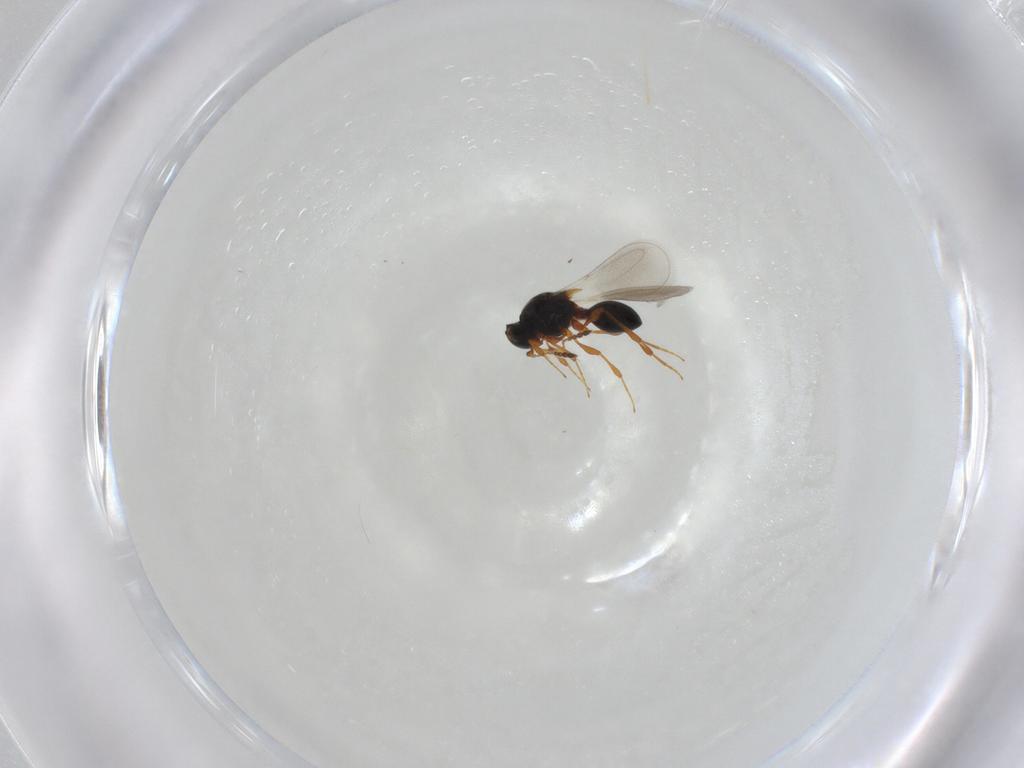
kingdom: Animalia
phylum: Arthropoda
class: Insecta
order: Hymenoptera
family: Platygastridae
